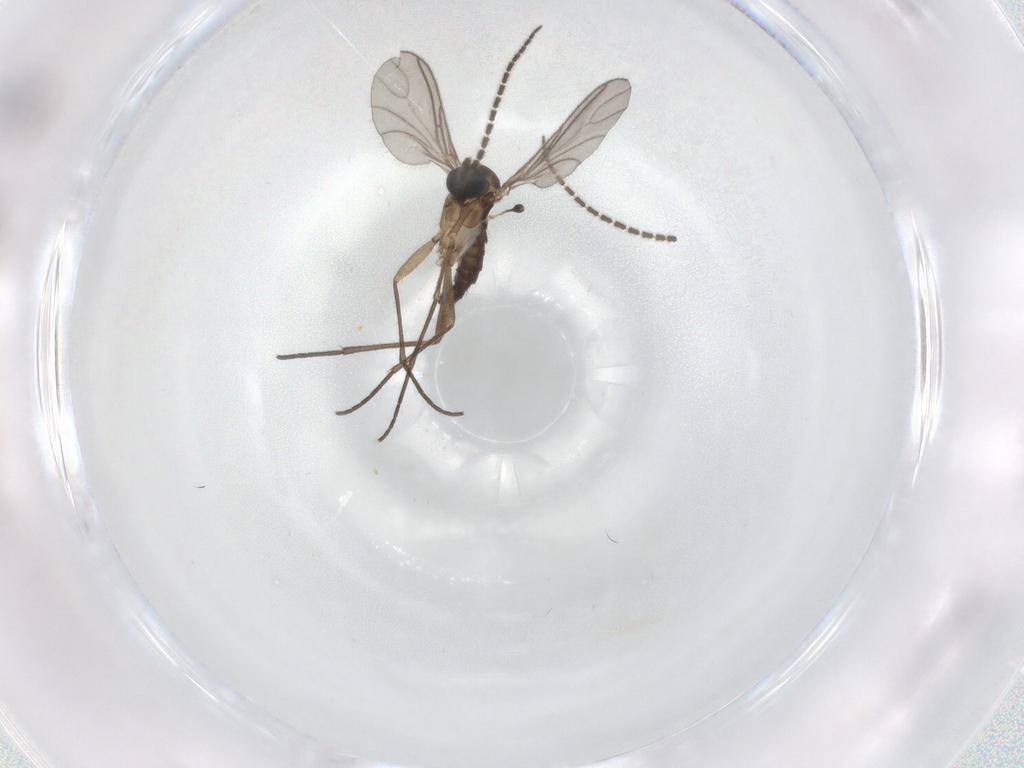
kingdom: Animalia
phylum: Arthropoda
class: Insecta
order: Diptera
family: Sciaridae
